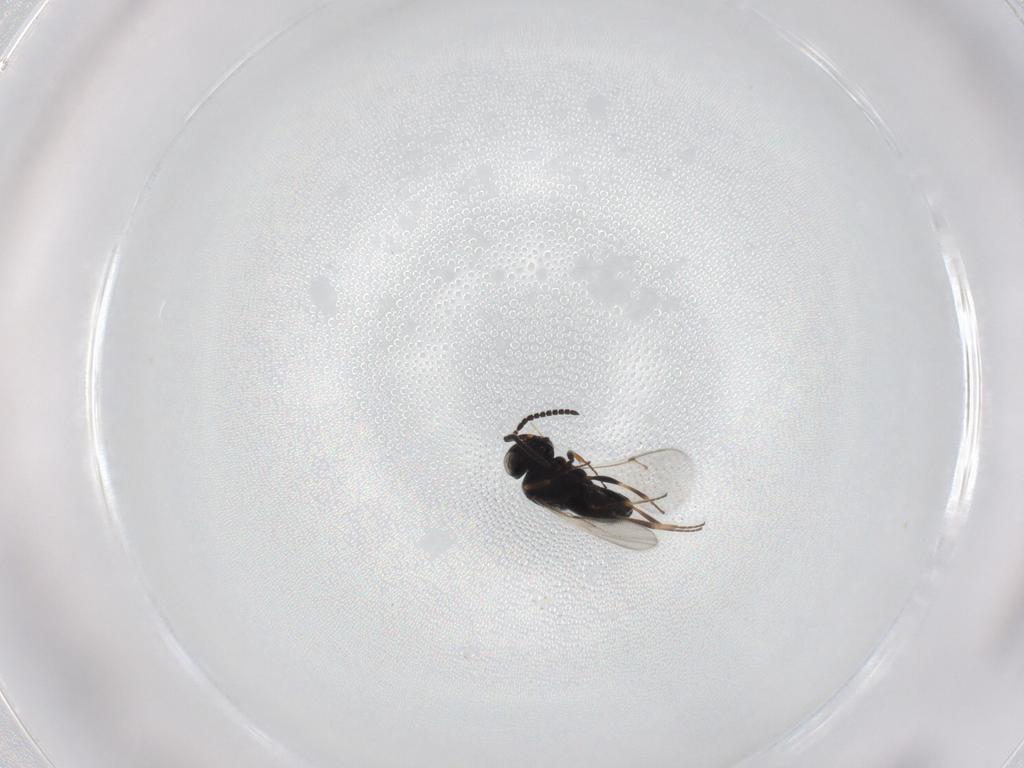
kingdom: Animalia
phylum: Arthropoda
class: Insecta
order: Hymenoptera
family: Scelionidae
